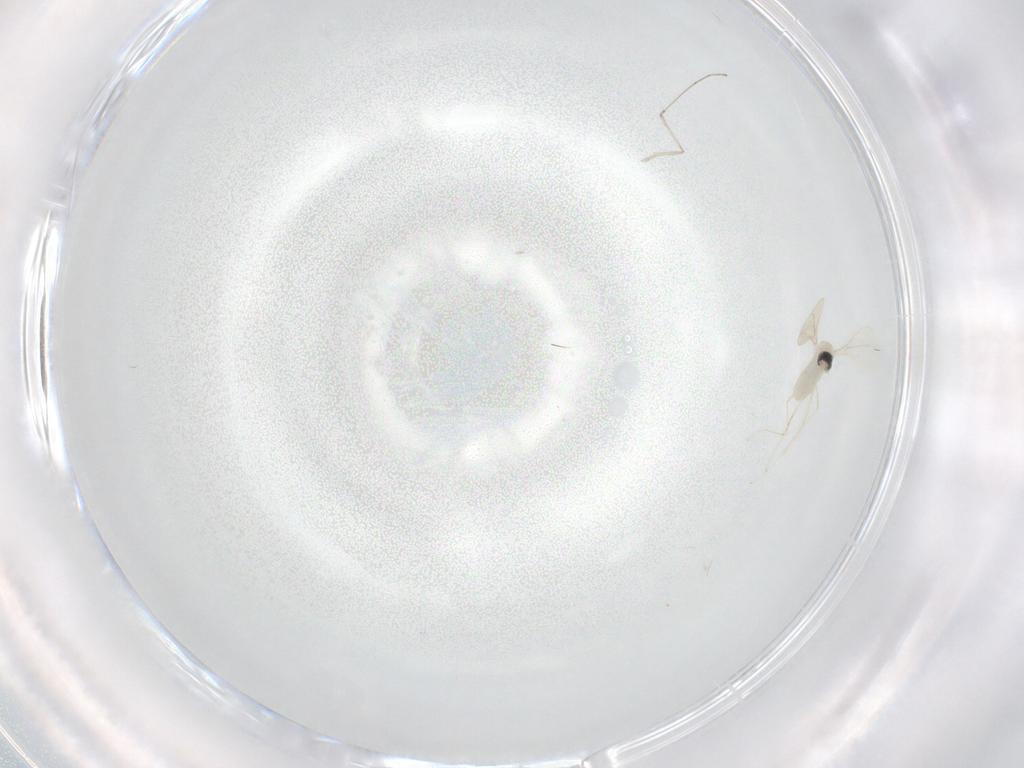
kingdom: Animalia
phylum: Arthropoda
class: Insecta
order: Diptera
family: Cecidomyiidae
